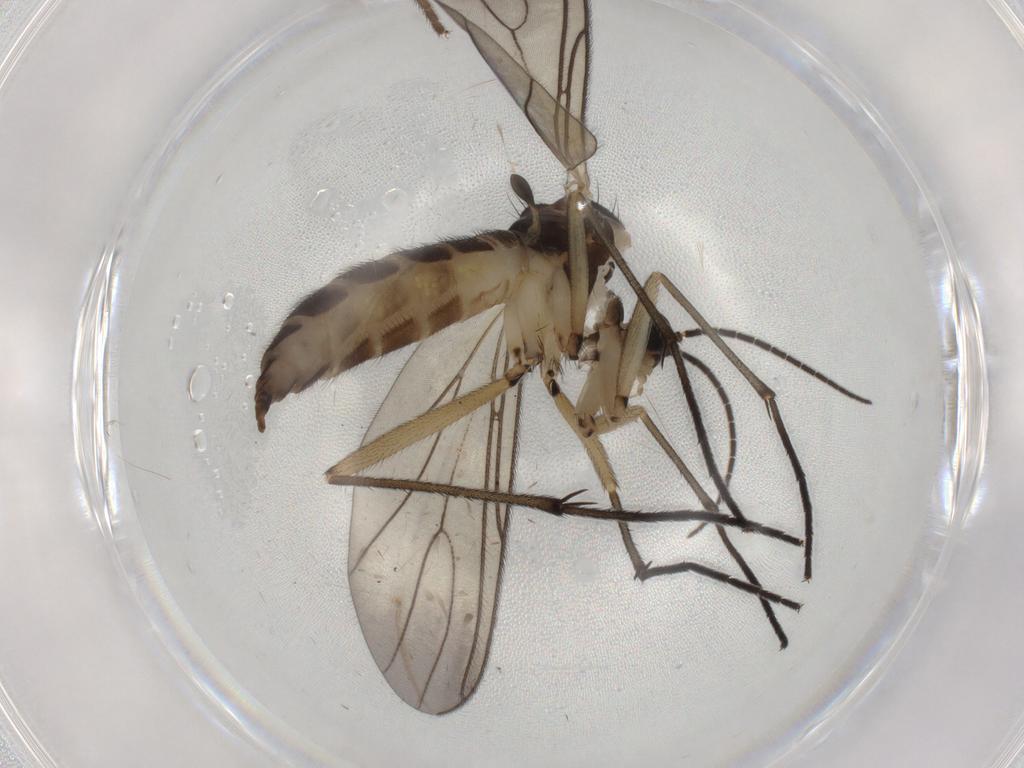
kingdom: Animalia
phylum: Arthropoda
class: Insecta
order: Diptera
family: Sciaridae
